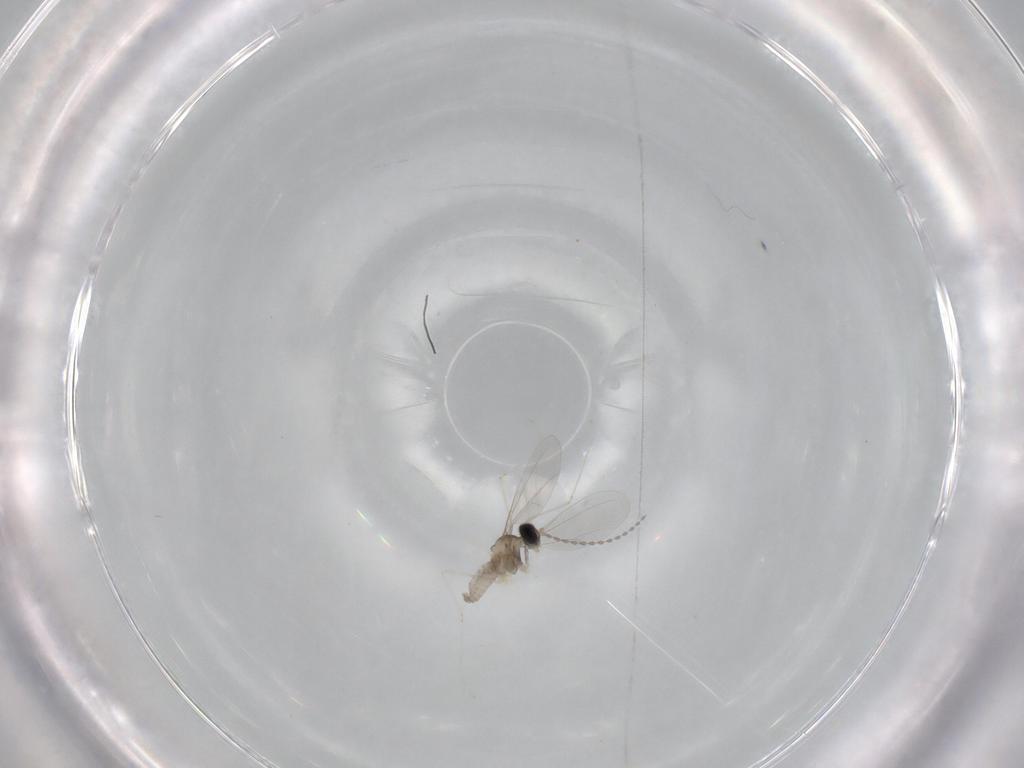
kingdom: Animalia
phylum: Arthropoda
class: Insecta
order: Diptera
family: Cecidomyiidae
